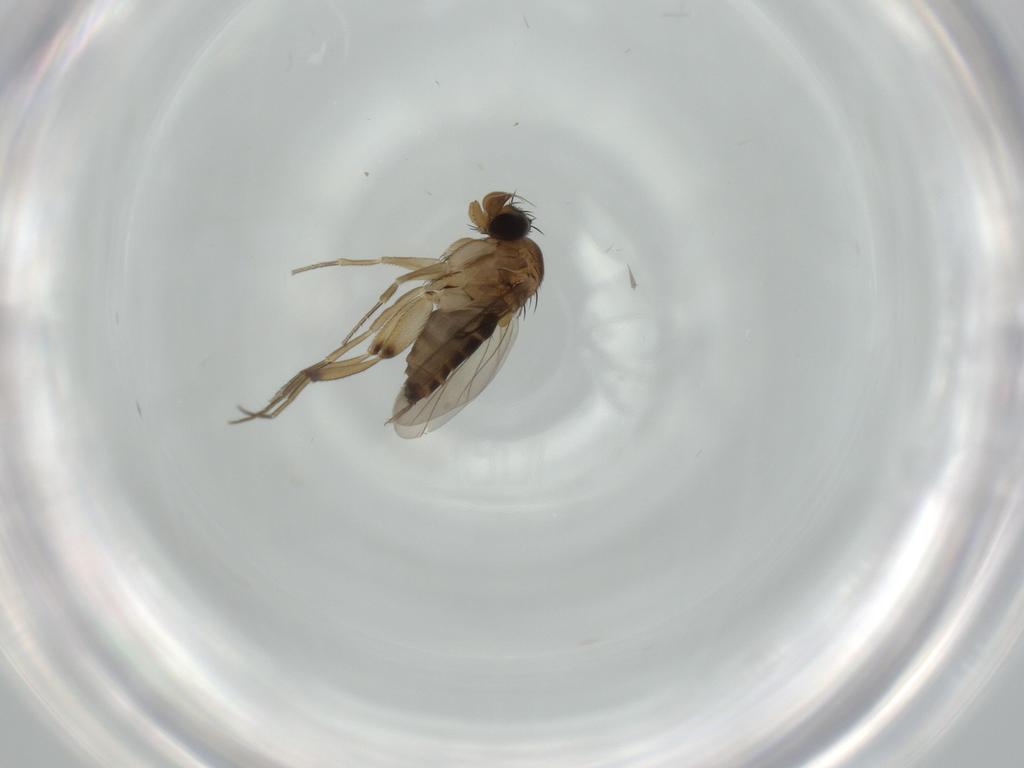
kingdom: Animalia
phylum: Arthropoda
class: Insecta
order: Diptera
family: Phoridae
